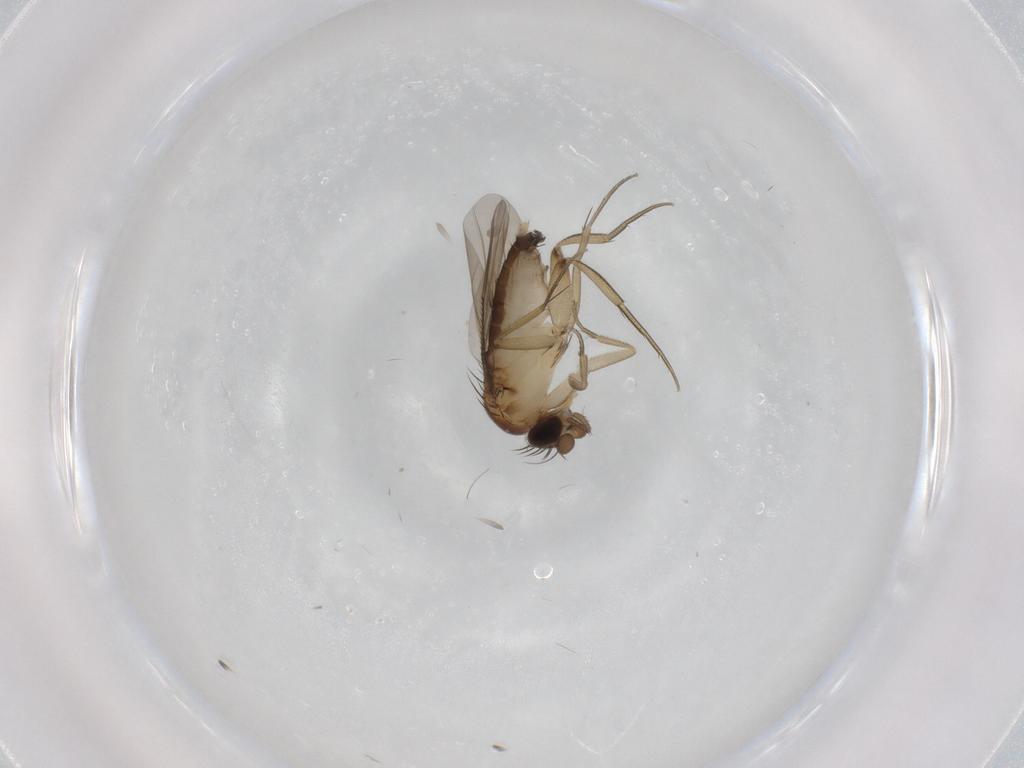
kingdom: Animalia
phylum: Arthropoda
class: Insecta
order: Diptera
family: Phoridae
